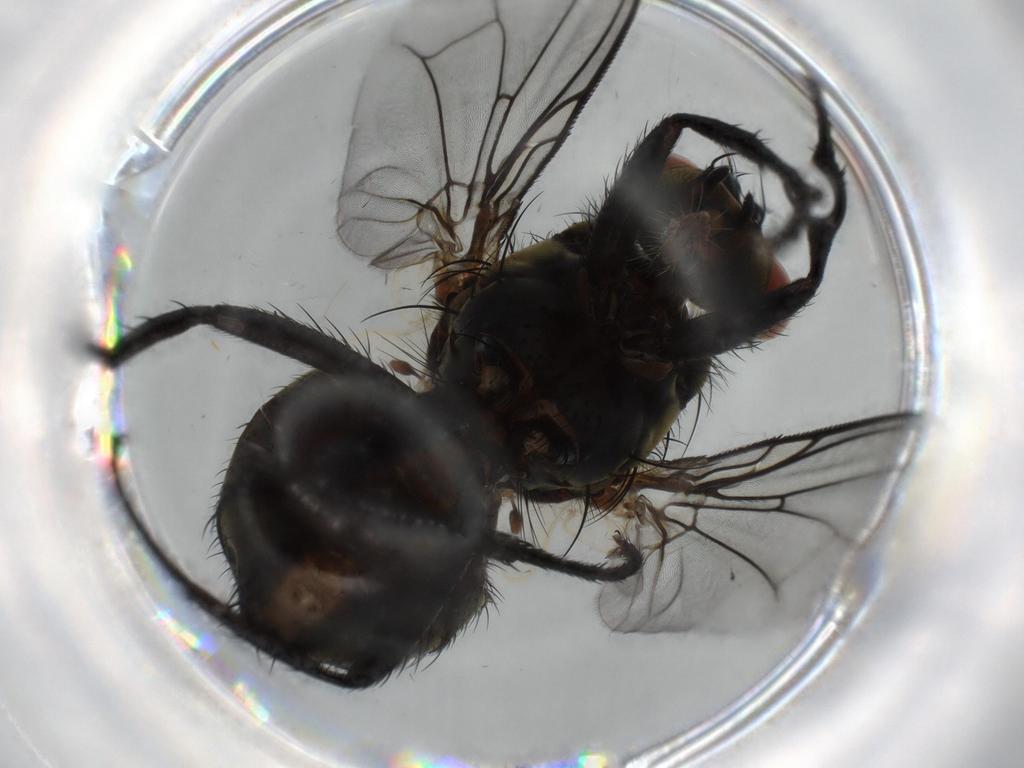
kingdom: Animalia
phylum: Arthropoda
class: Insecta
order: Diptera
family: Sarcophagidae
